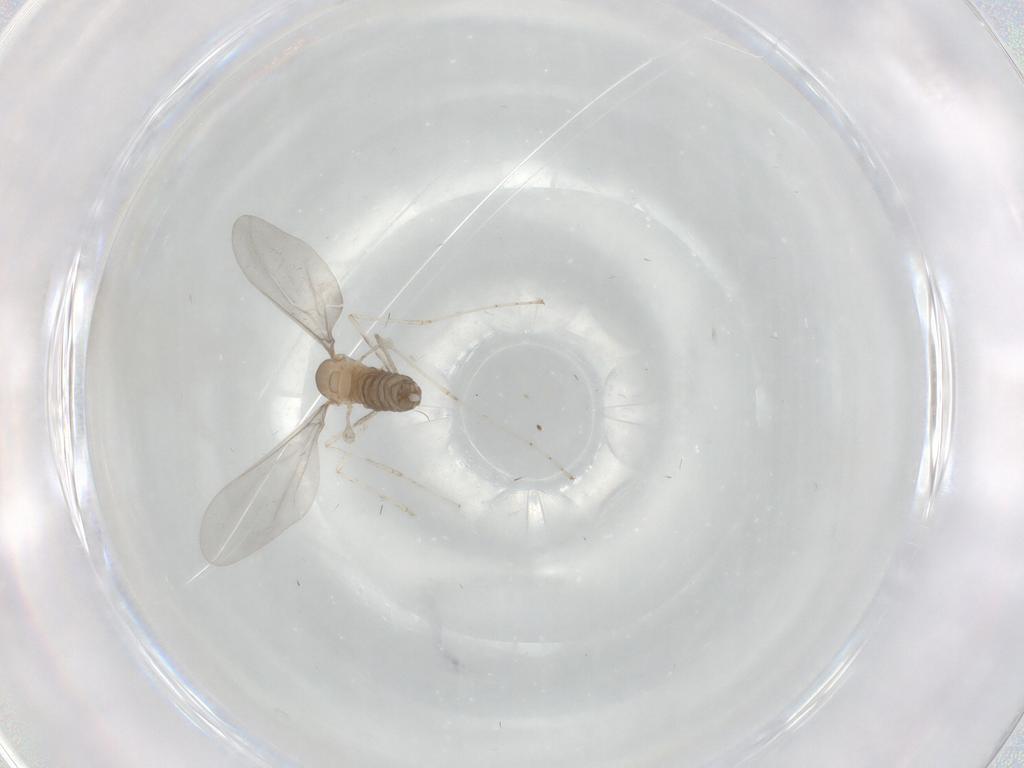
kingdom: Animalia
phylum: Arthropoda
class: Insecta
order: Diptera
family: Cecidomyiidae
